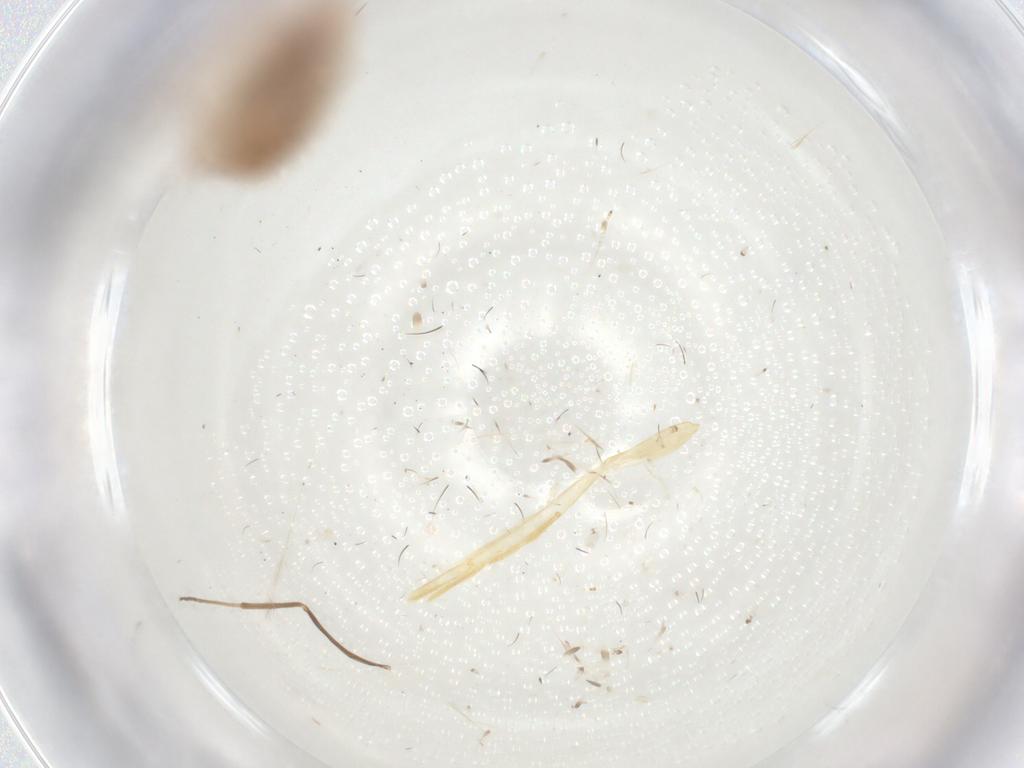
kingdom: Animalia
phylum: Arthropoda
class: Insecta
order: Lepidoptera
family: Tineidae
